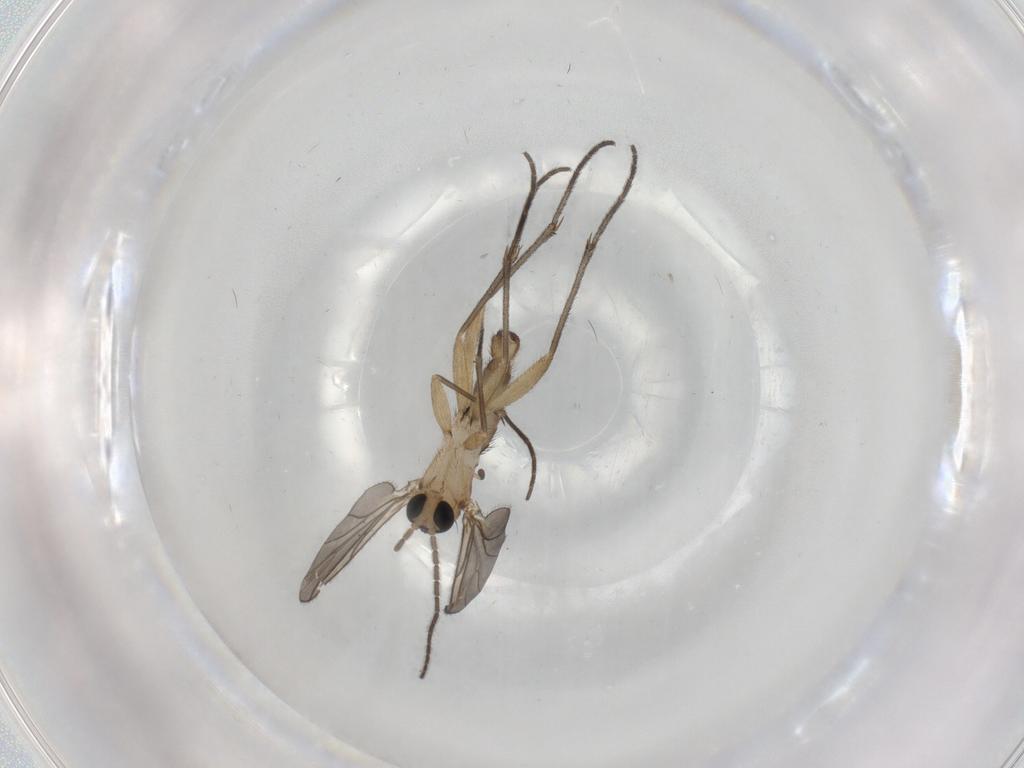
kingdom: Animalia
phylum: Arthropoda
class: Insecta
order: Diptera
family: Sciaridae
